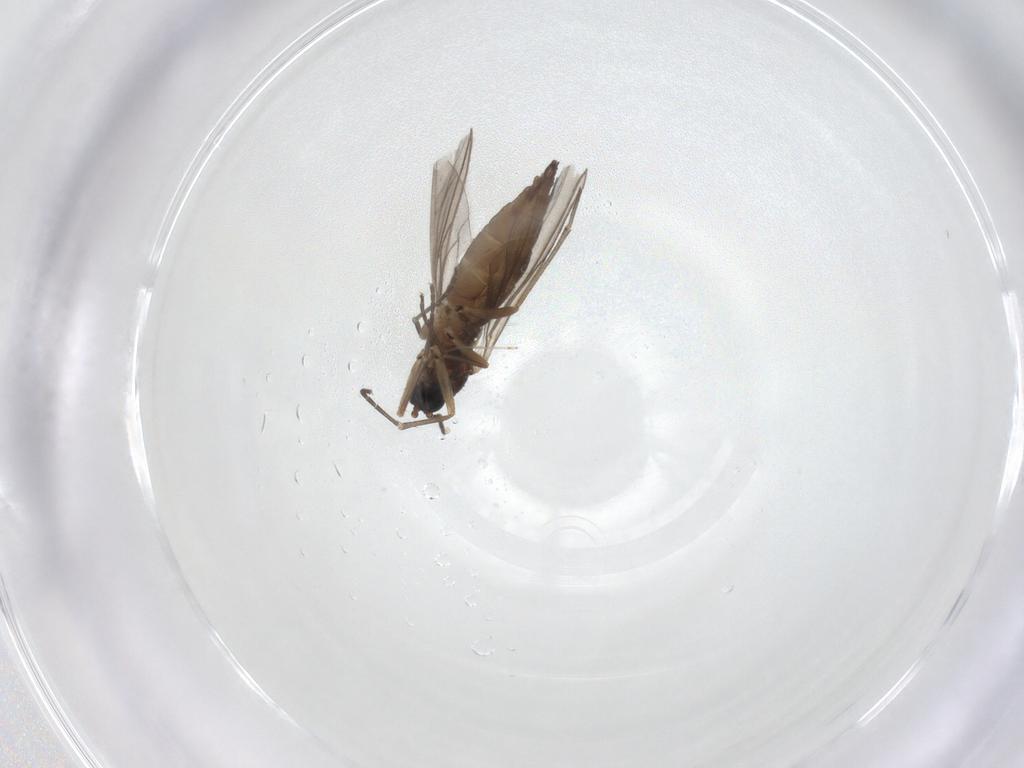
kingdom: Animalia
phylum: Arthropoda
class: Insecta
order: Diptera
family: Sciaridae
